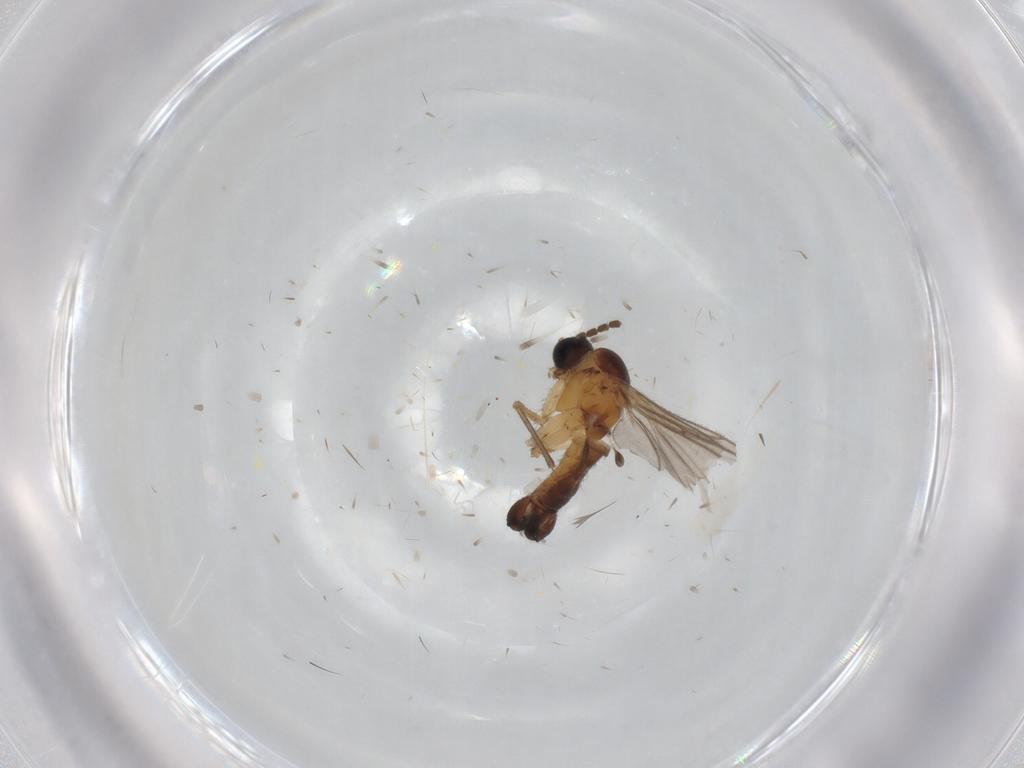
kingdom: Animalia
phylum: Arthropoda
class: Insecta
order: Diptera
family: Sciaridae
